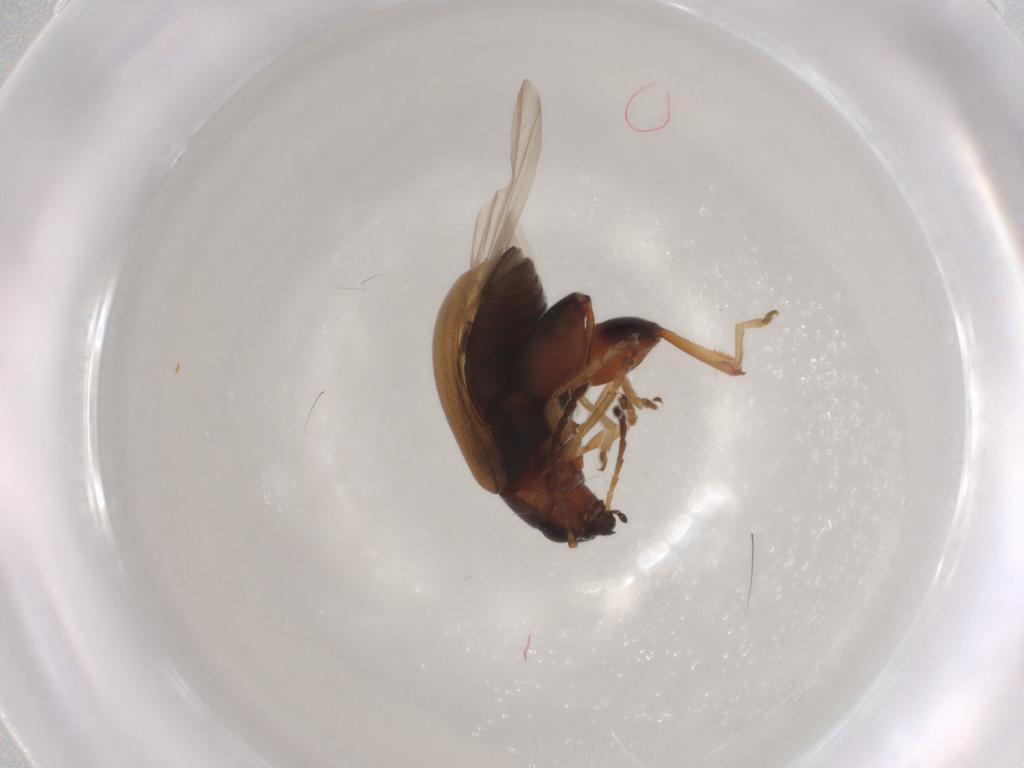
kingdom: Animalia
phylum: Arthropoda
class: Insecta
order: Coleoptera
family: Chrysomelidae
